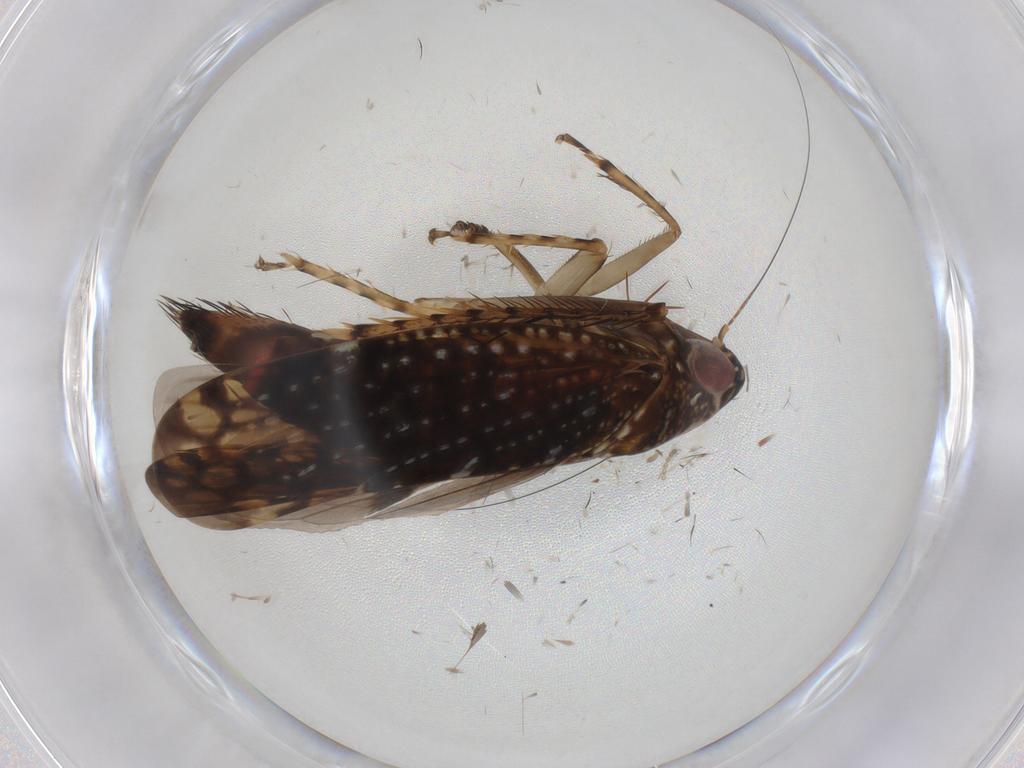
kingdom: Animalia
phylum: Arthropoda
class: Insecta
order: Hemiptera
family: Cicadellidae
